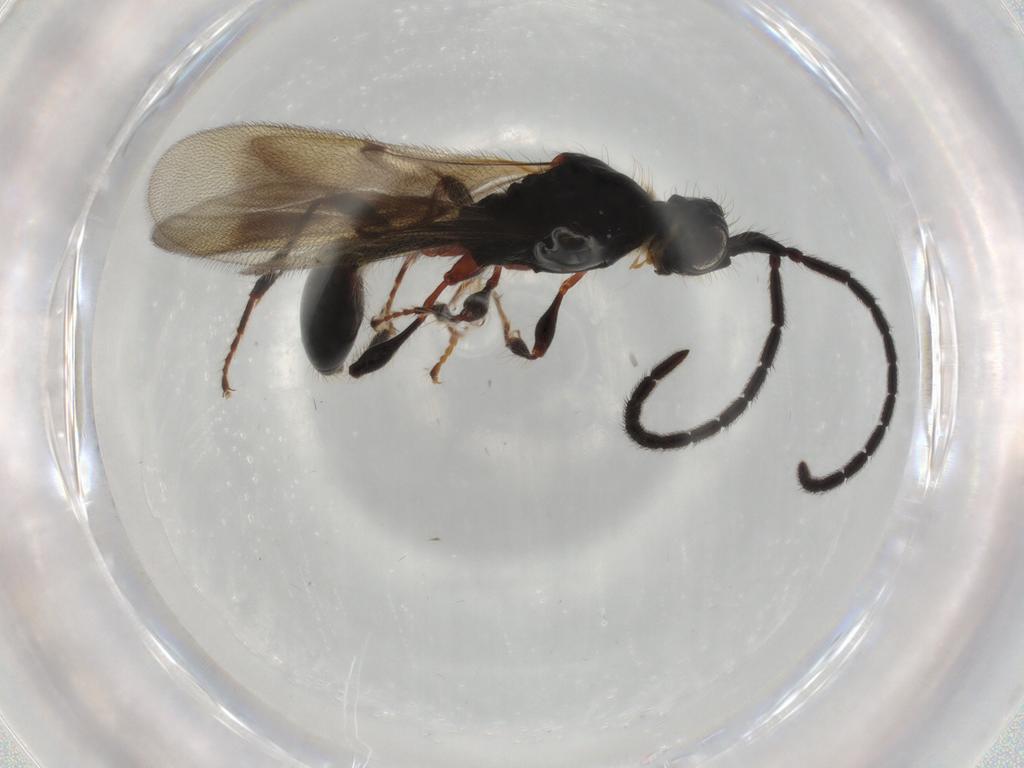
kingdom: Animalia
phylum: Arthropoda
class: Insecta
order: Hymenoptera
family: Diapriidae
